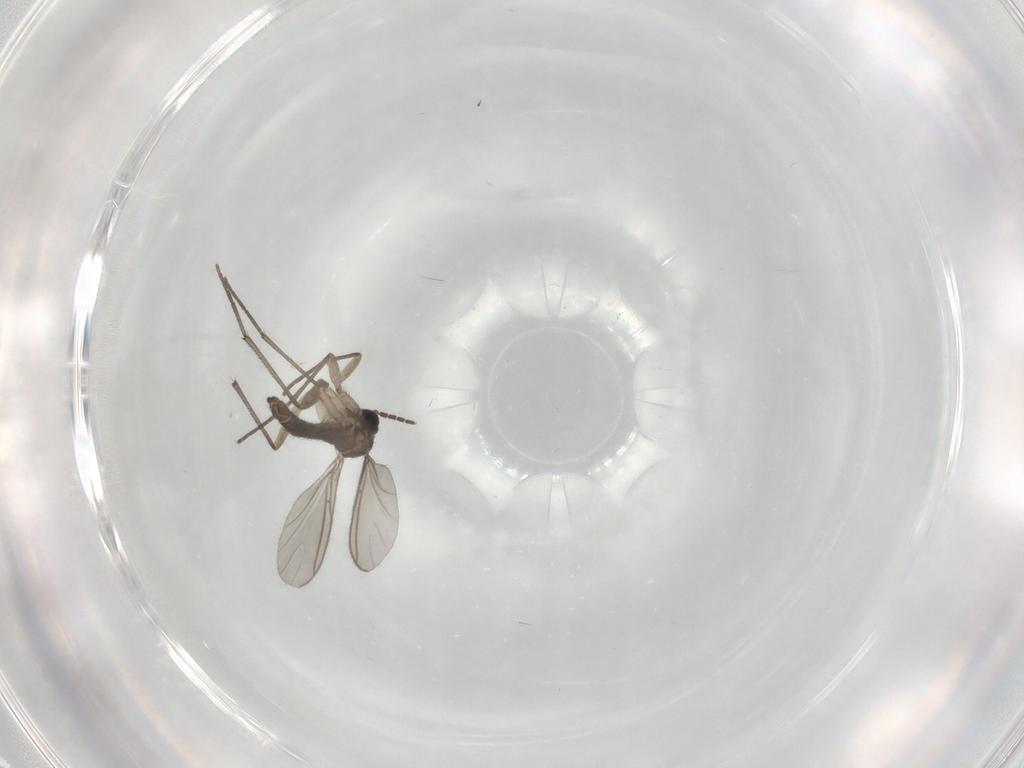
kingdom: Animalia
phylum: Arthropoda
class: Insecta
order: Diptera
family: Sciaridae
